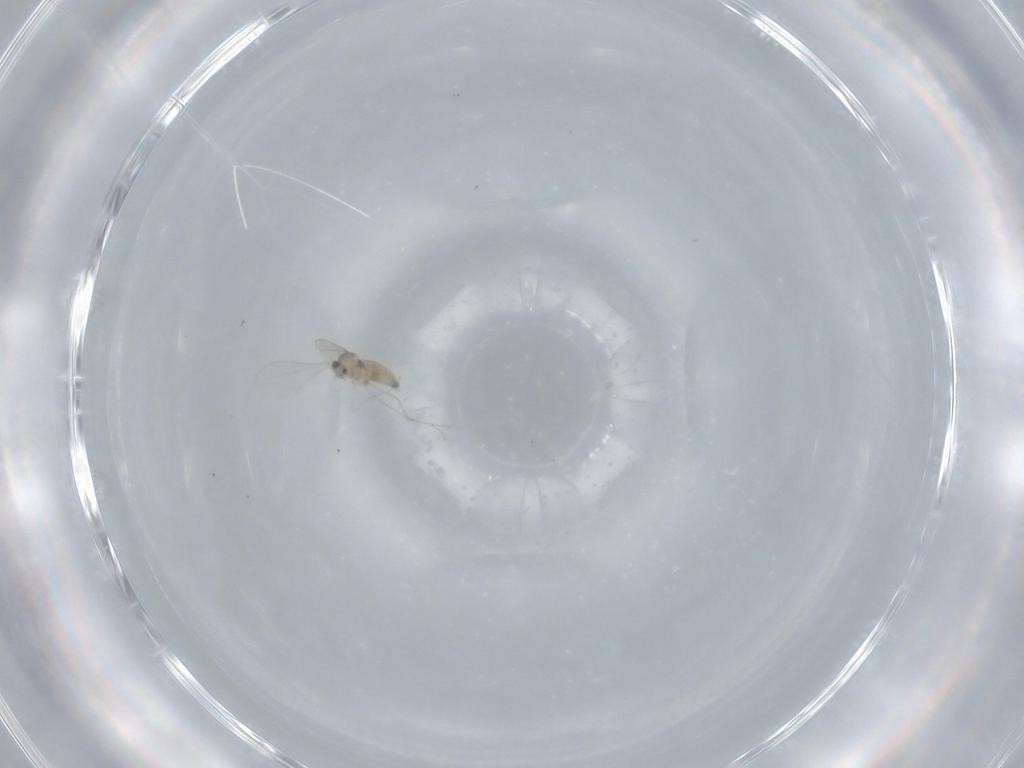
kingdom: Animalia
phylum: Arthropoda
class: Insecta
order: Diptera
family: Cecidomyiidae
